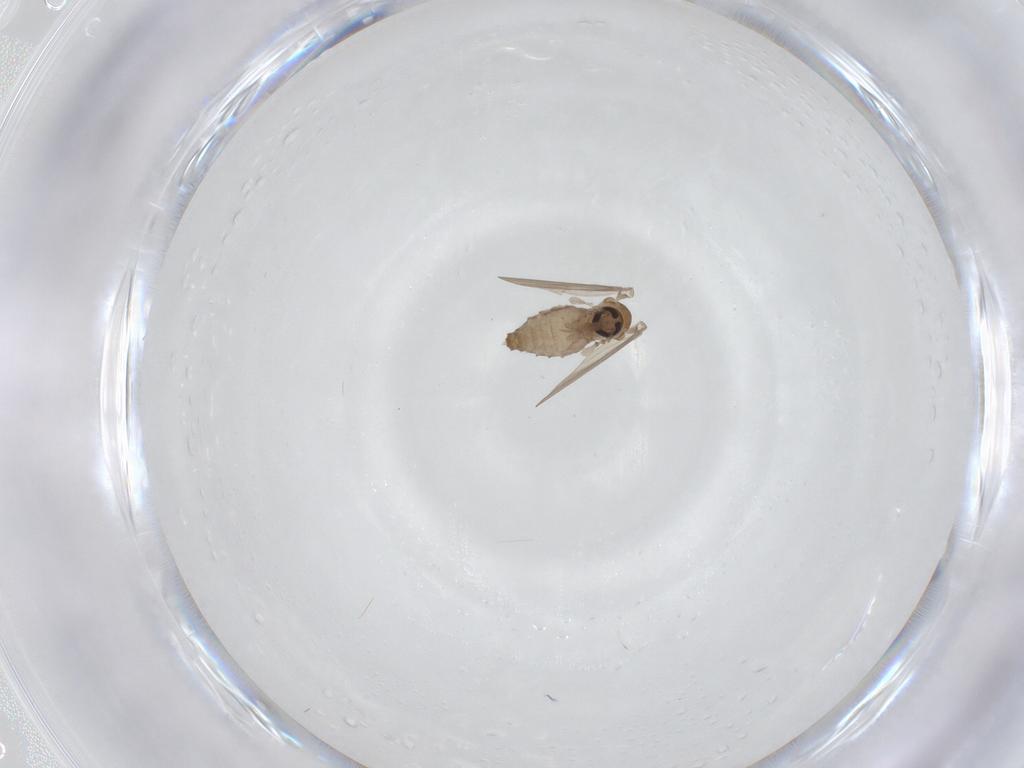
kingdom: Animalia
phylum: Arthropoda
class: Insecta
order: Diptera
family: Psychodidae
